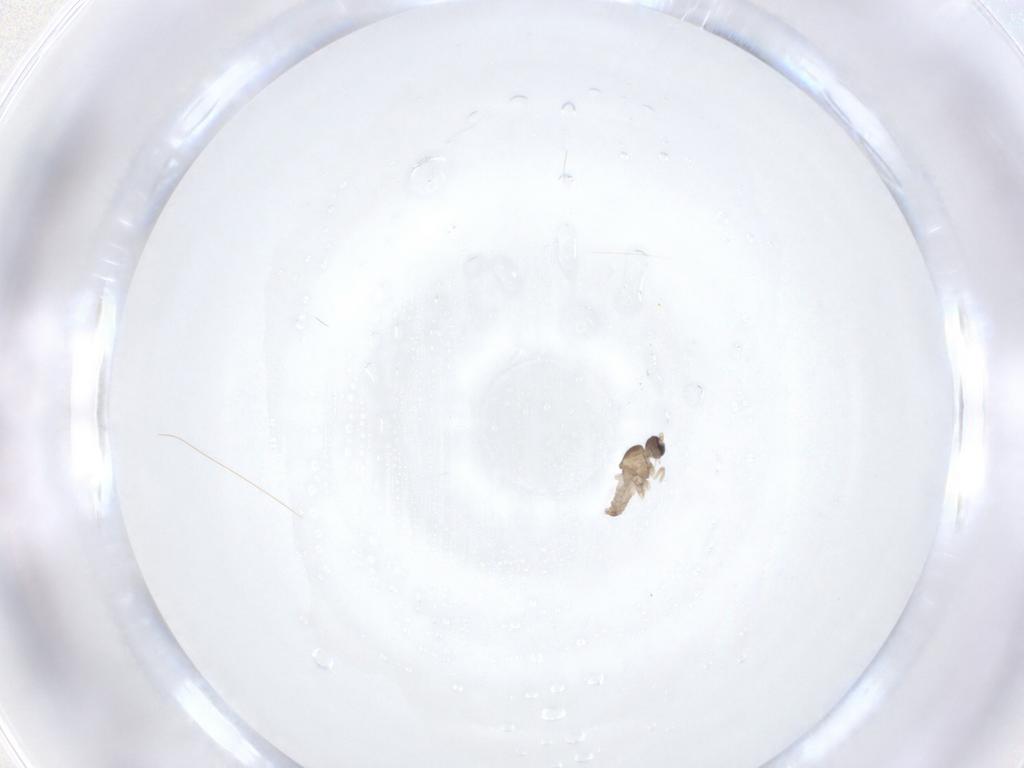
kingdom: Animalia
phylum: Arthropoda
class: Insecta
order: Diptera
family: Cecidomyiidae
